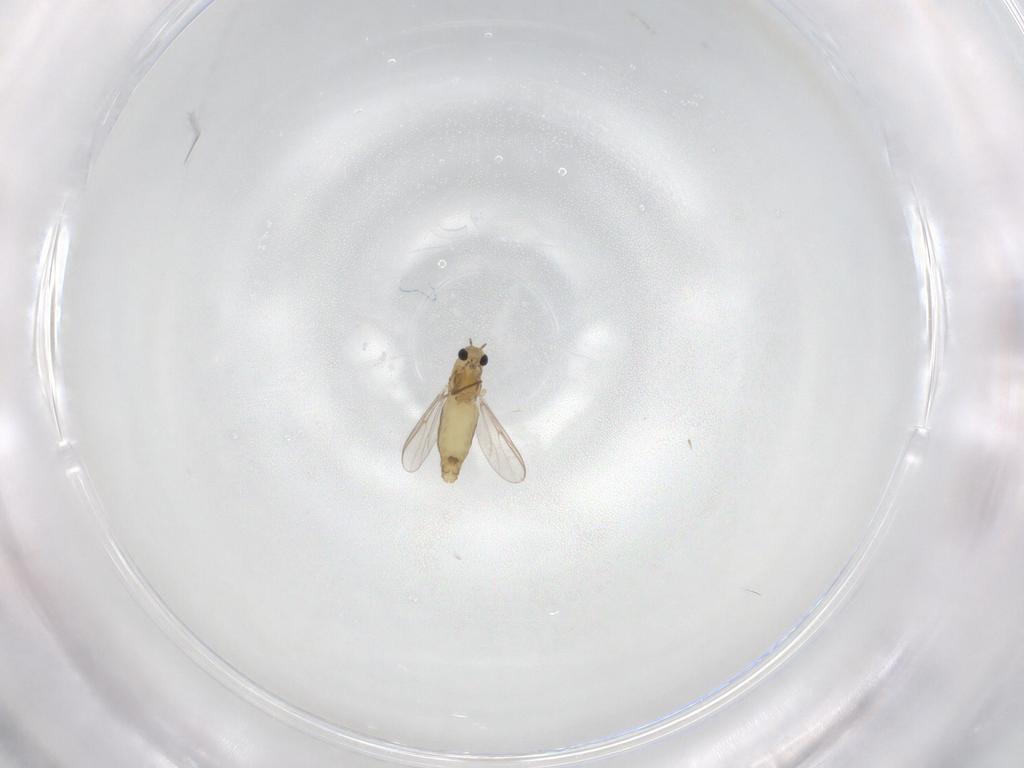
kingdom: Animalia
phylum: Arthropoda
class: Insecta
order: Diptera
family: Chironomidae
